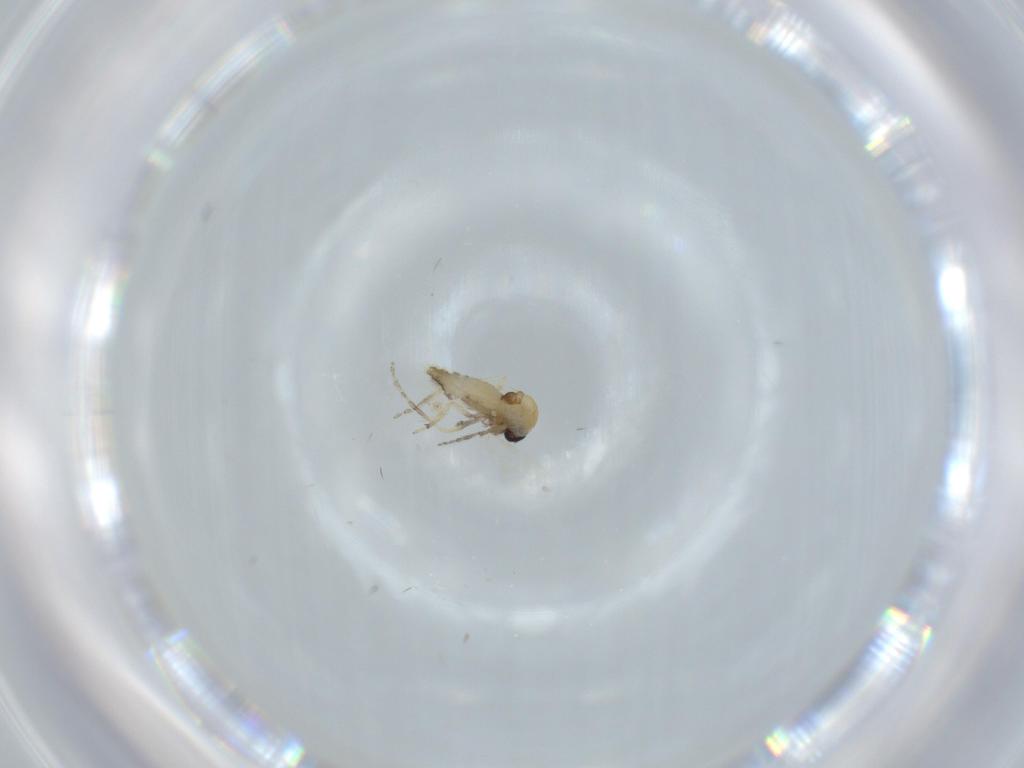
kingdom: Animalia
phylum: Arthropoda
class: Insecta
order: Diptera
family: Ceratopogonidae
